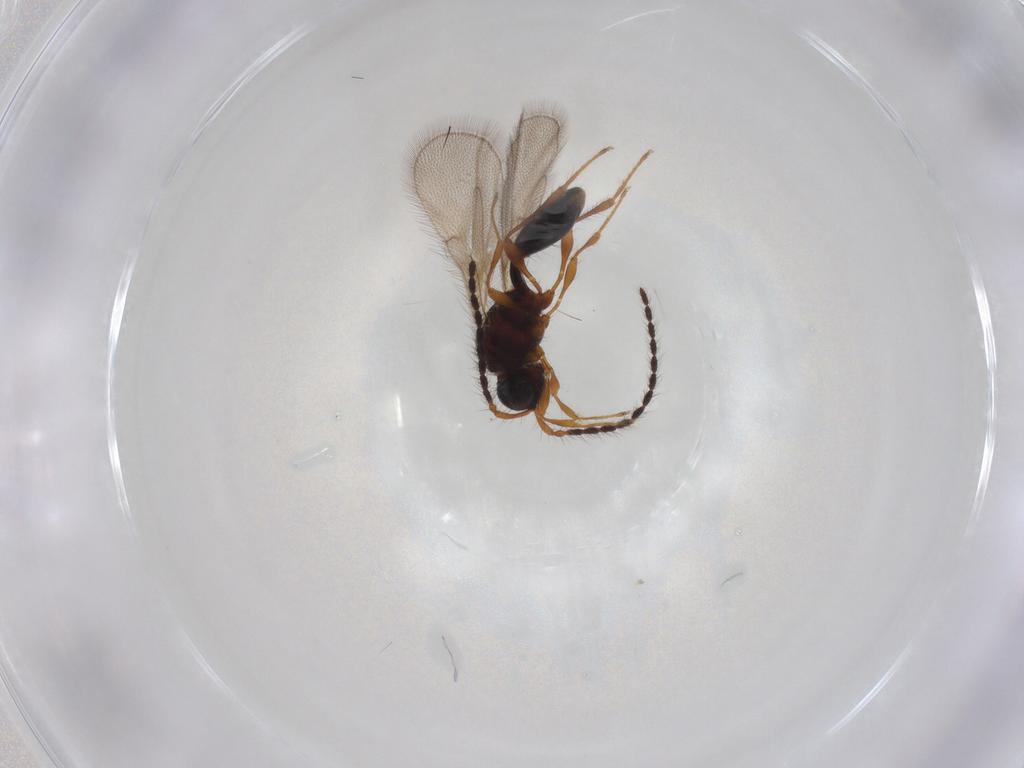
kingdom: Animalia
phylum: Arthropoda
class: Insecta
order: Hymenoptera
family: Diapriidae
